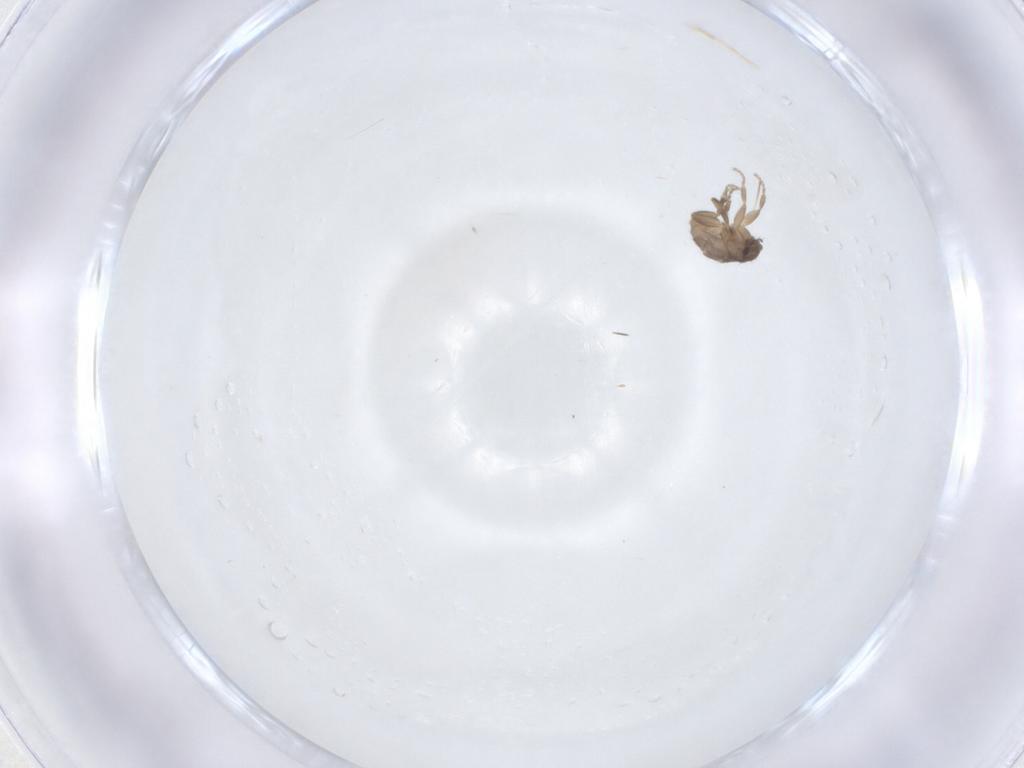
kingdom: Animalia
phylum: Arthropoda
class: Insecta
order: Diptera
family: Phoridae
